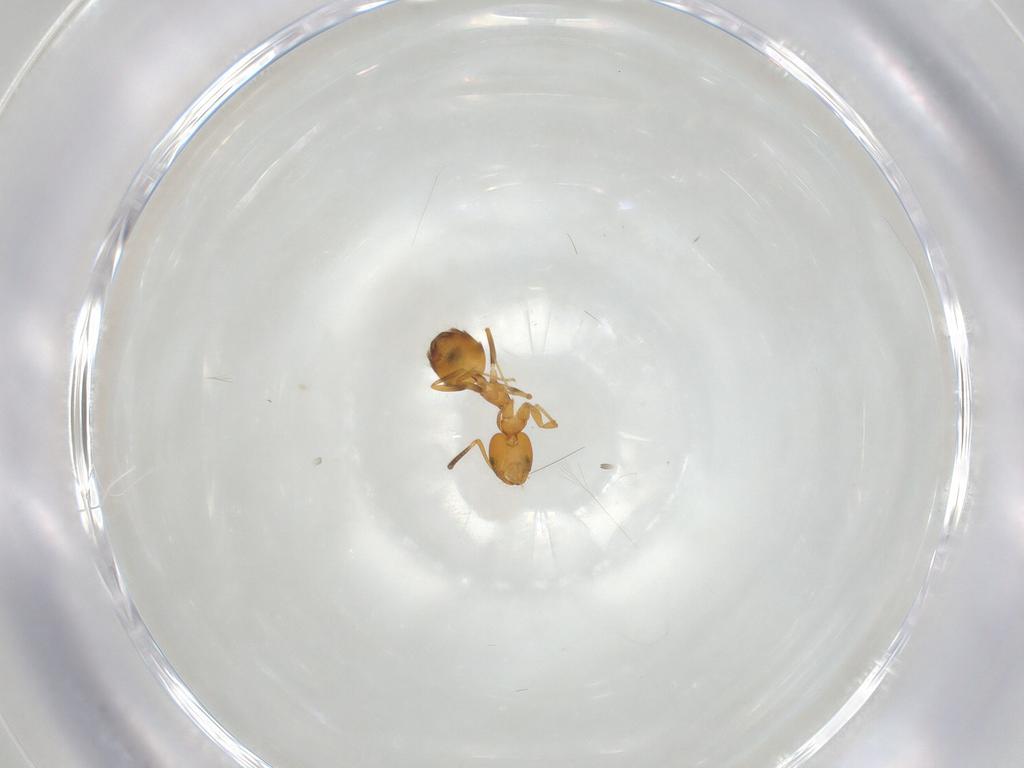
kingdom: Animalia
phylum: Arthropoda
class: Insecta
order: Hymenoptera
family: Formicidae
